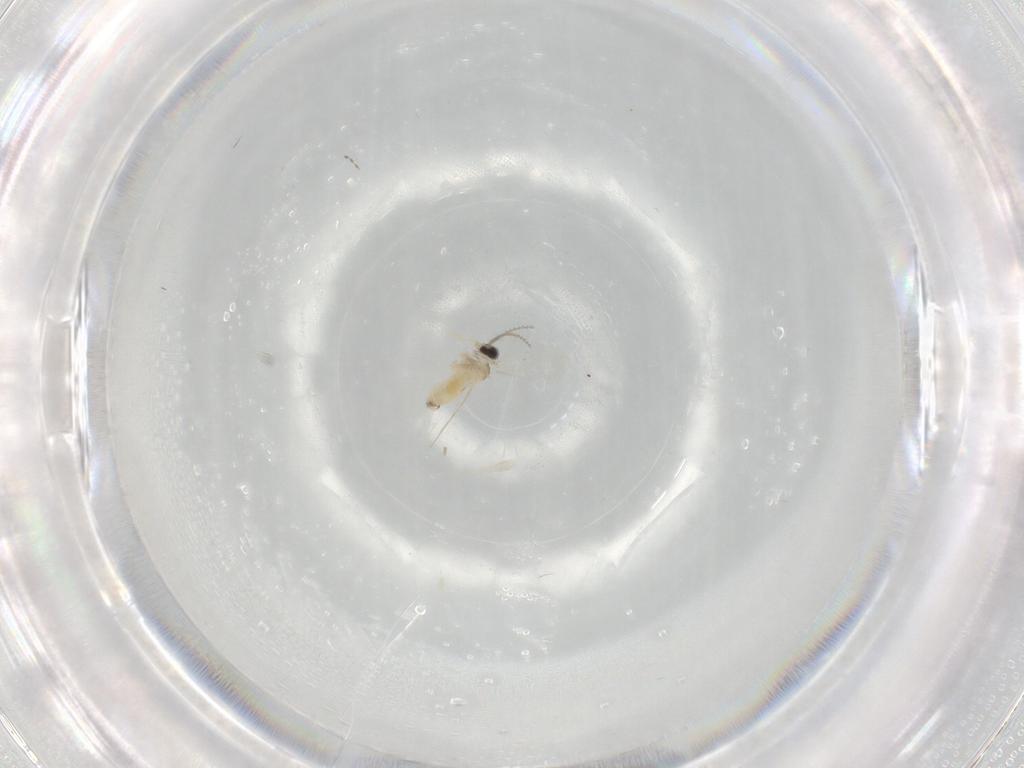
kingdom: Animalia
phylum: Arthropoda
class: Insecta
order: Diptera
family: Cecidomyiidae
